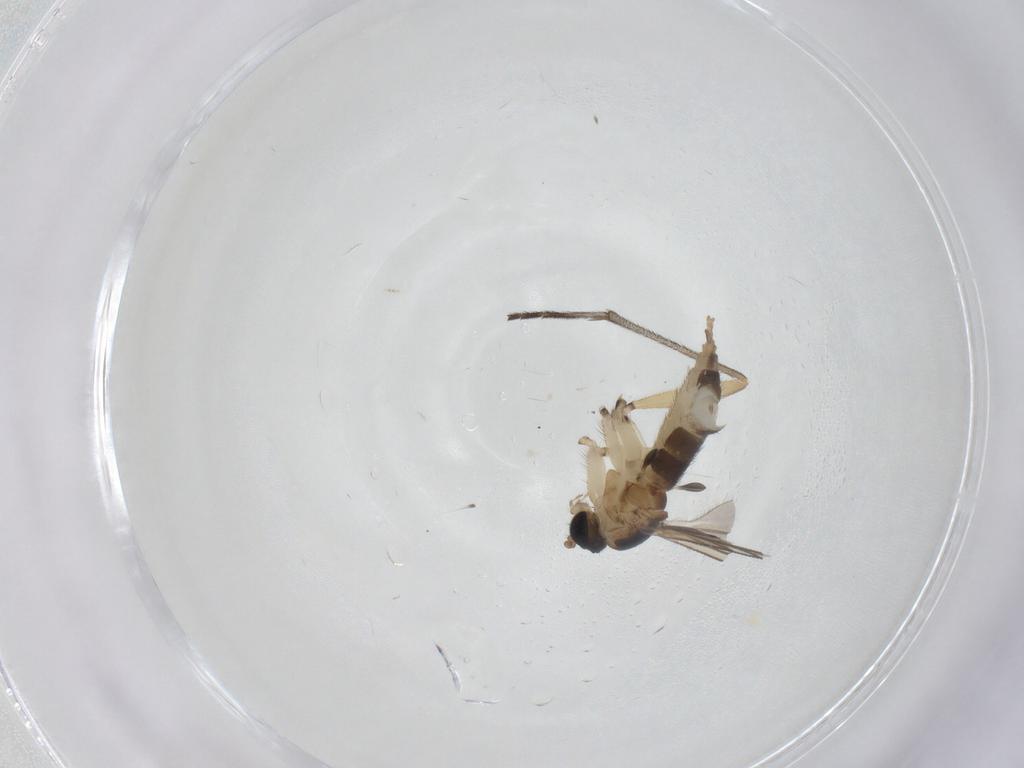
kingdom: Animalia
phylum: Arthropoda
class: Insecta
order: Diptera
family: Sciaridae
